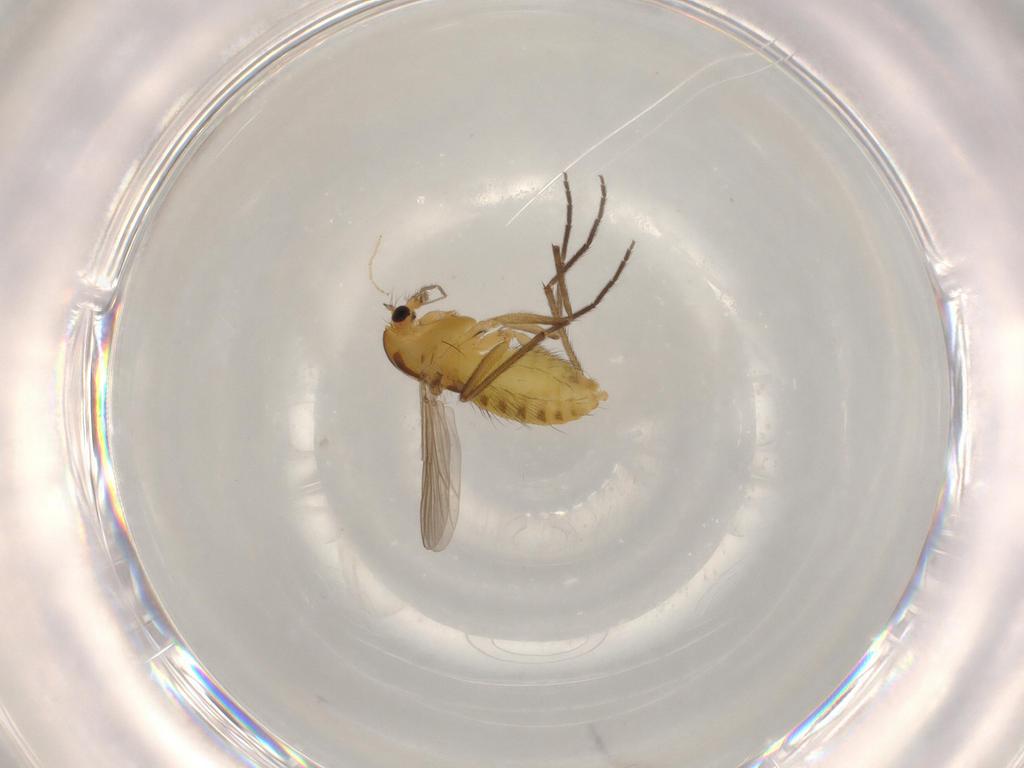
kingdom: Animalia
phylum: Arthropoda
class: Insecta
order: Diptera
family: Chironomidae
